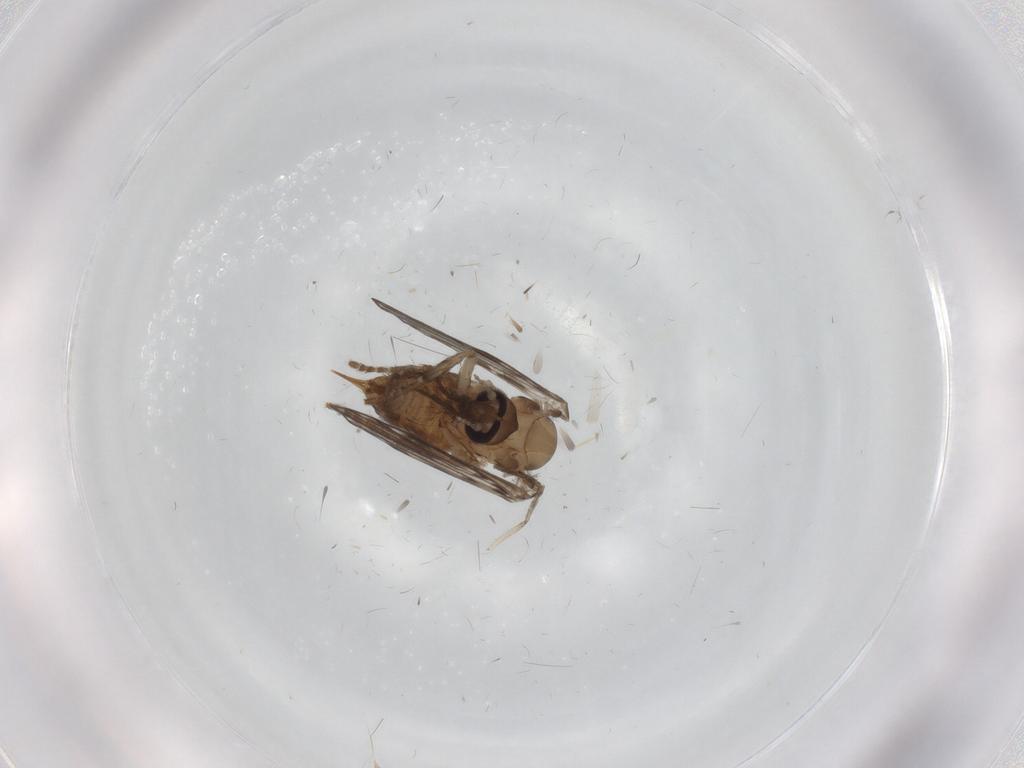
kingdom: Animalia
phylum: Arthropoda
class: Insecta
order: Diptera
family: Psychodidae
